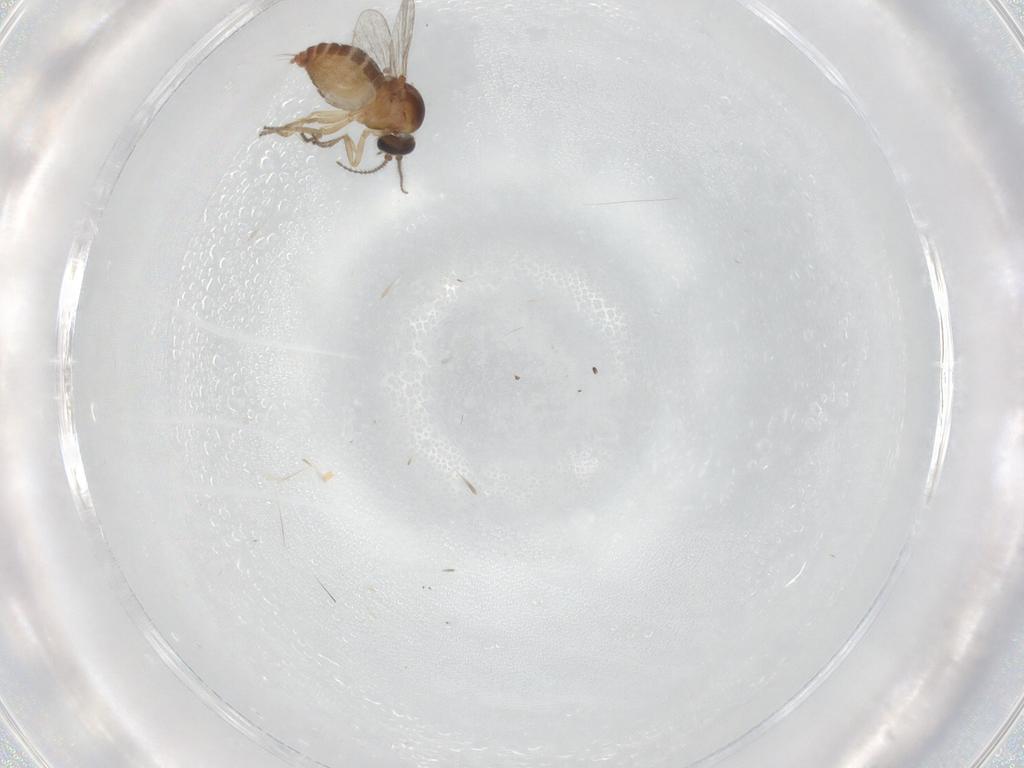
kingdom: Animalia
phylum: Arthropoda
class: Insecta
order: Diptera
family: Ceratopogonidae
